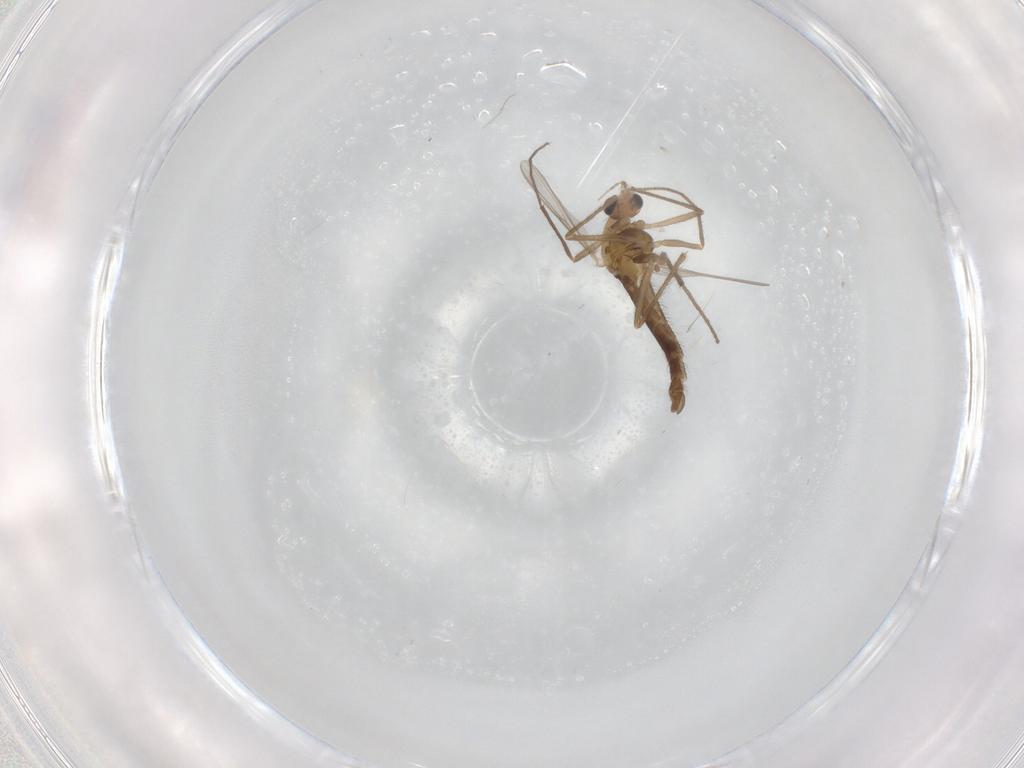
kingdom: Animalia
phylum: Arthropoda
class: Insecta
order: Diptera
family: Chironomidae
